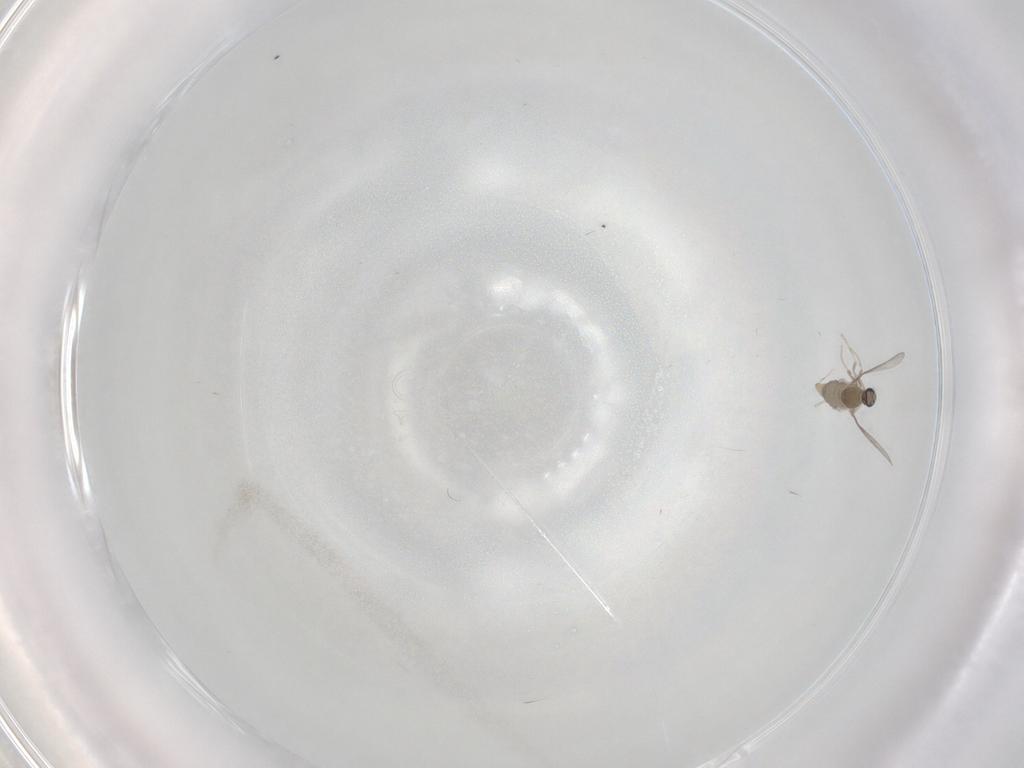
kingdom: Animalia
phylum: Arthropoda
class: Insecta
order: Diptera
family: Cecidomyiidae
